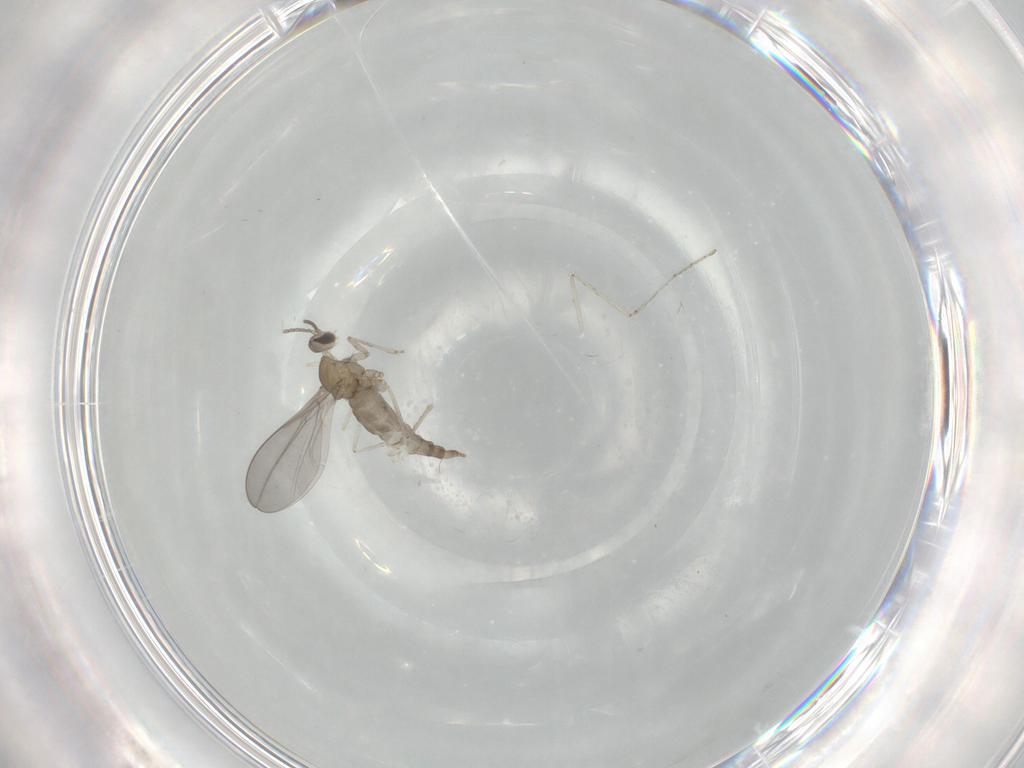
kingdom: Animalia
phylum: Arthropoda
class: Insecta
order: Diptera
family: Cecidomyiidae
